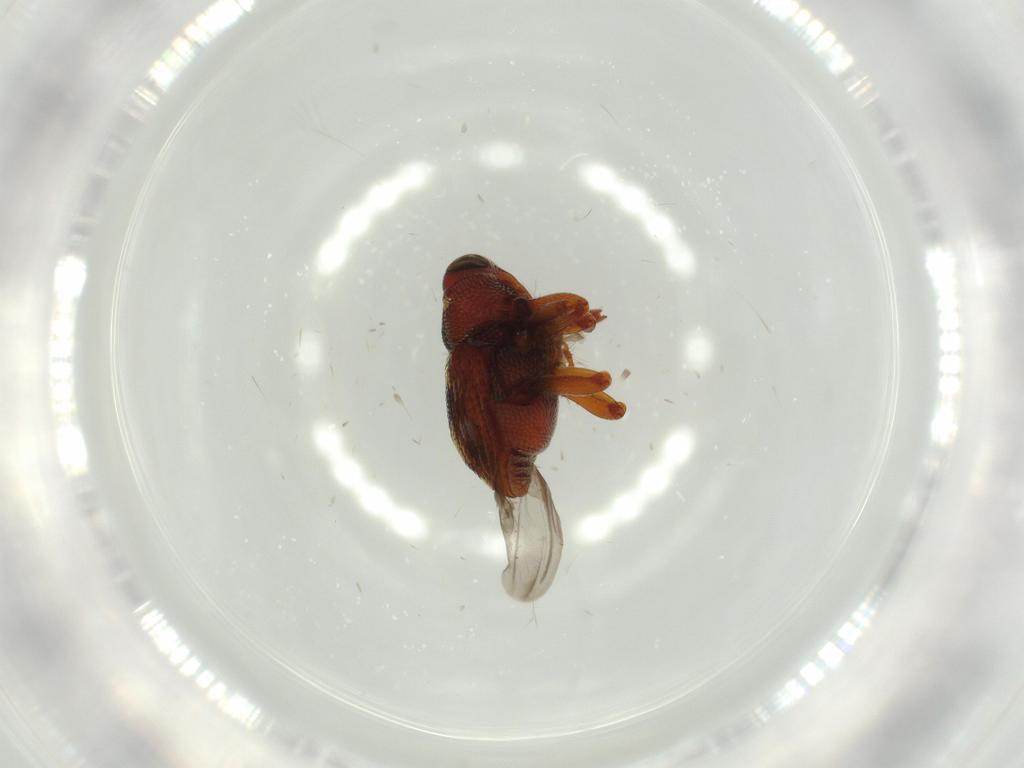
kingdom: Animalia
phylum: Arthropoda
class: Insecta
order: Coleoptera
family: Curculionidae
